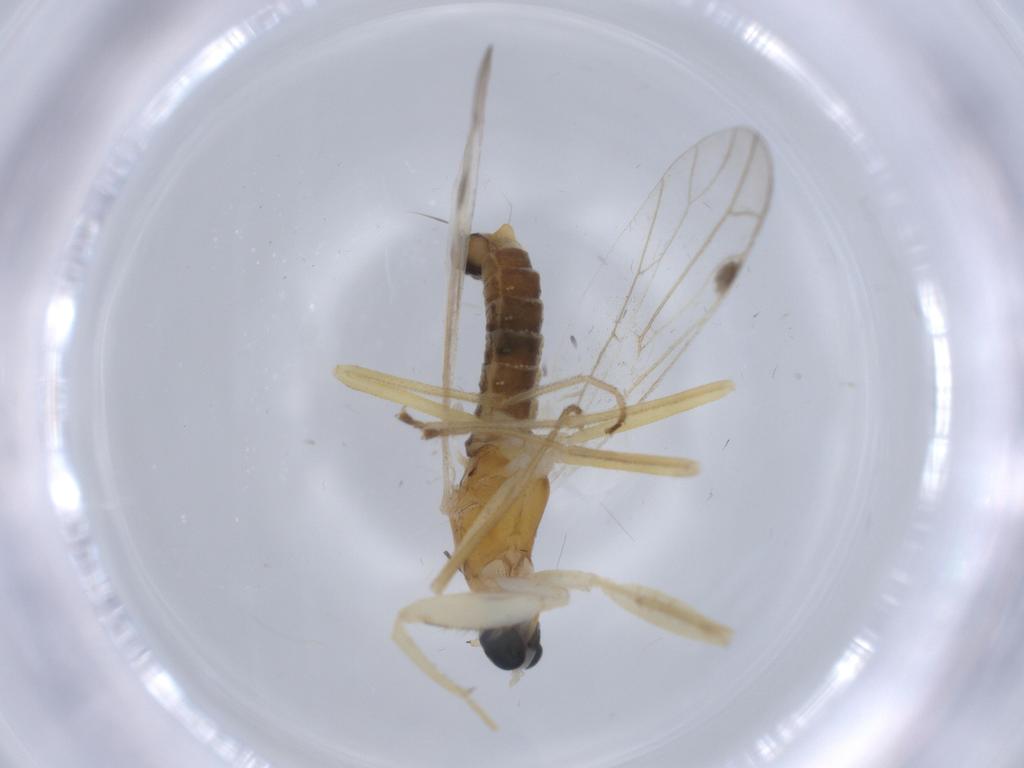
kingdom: Animalia
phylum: Arthropoda
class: Insecta
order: Diptera
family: Empididae
